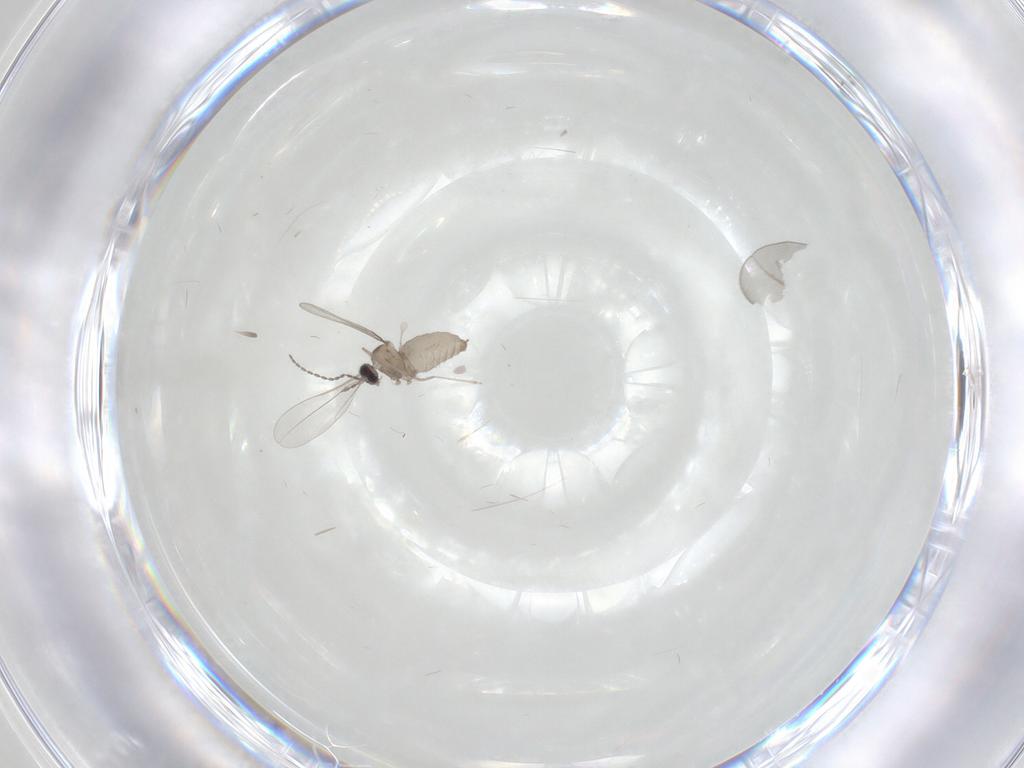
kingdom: Animalia
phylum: Arthropoda
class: Insecta
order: Diptera
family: Cecidomyiidae
